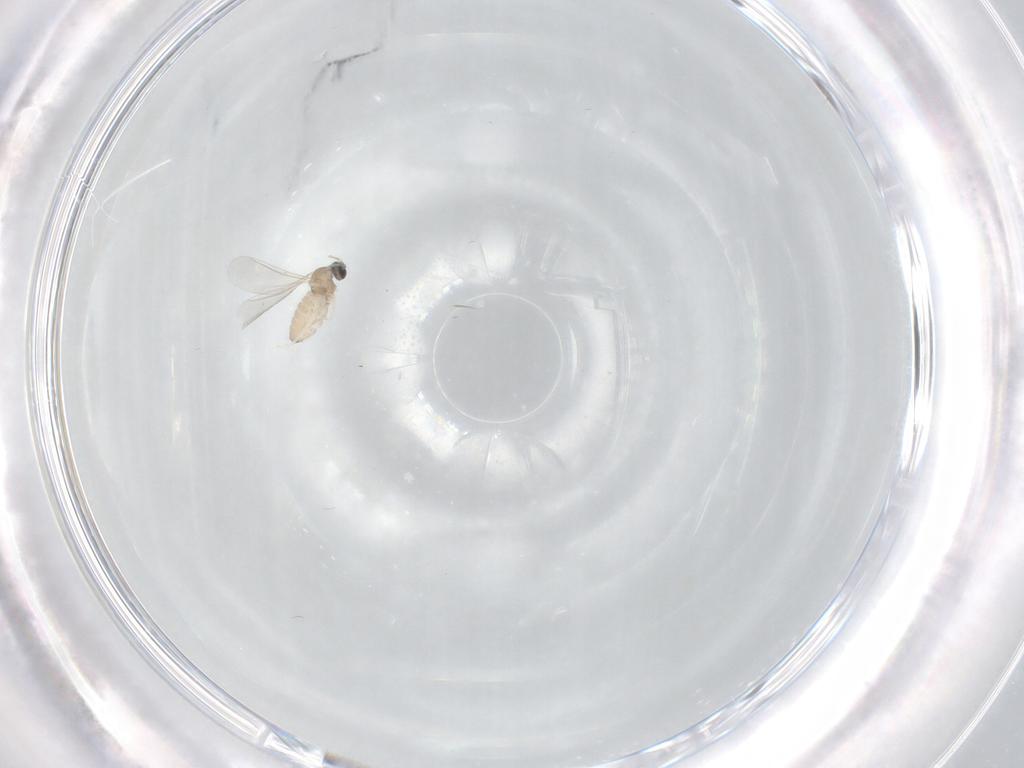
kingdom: Animalia
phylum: Arthropoda
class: Insecta
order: Diptera
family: Cecidomyiidae
